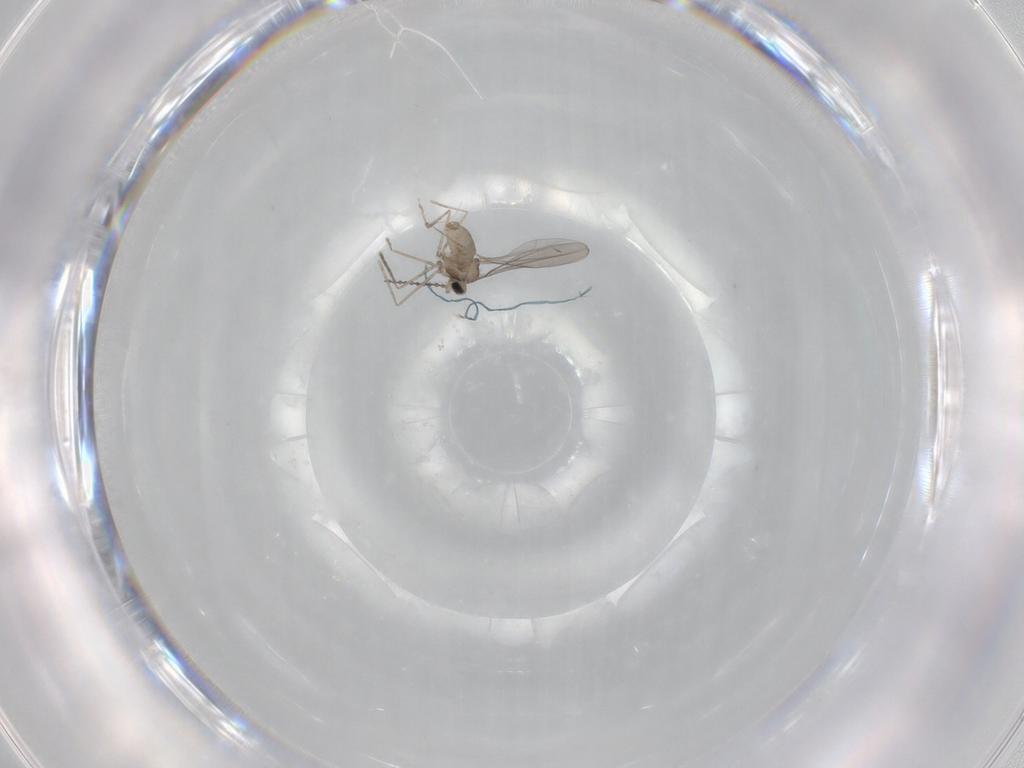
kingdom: Animalia
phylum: Arthropoda
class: Insecta
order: Diptera
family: Cecidomyiidae
